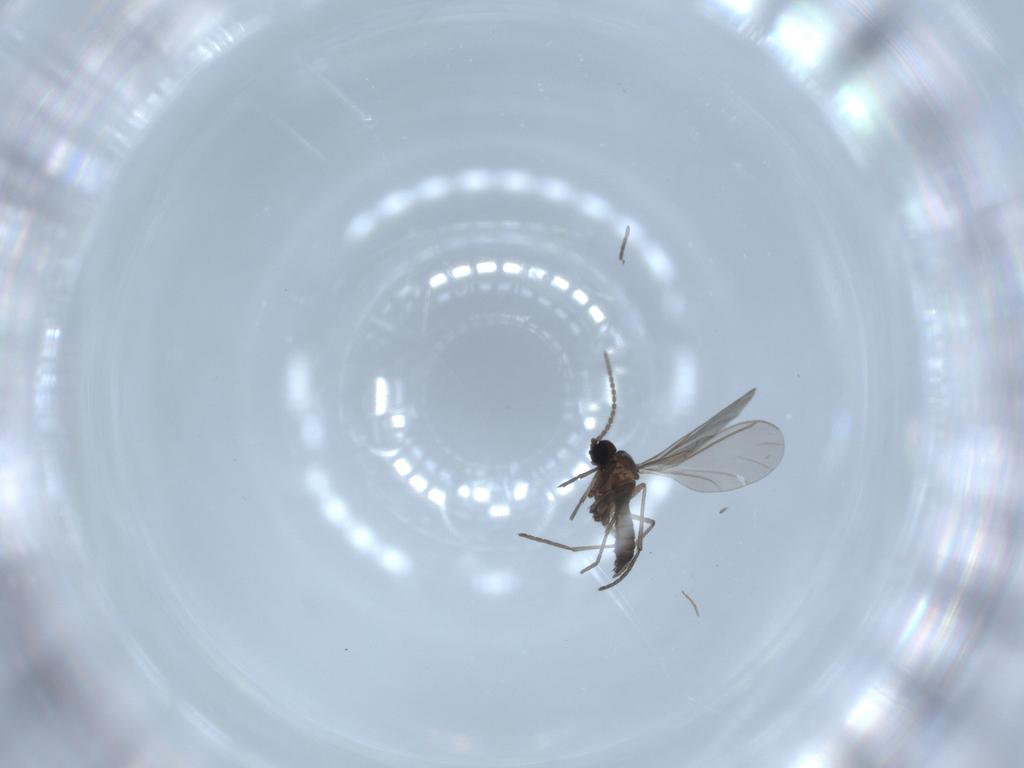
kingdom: Animalia
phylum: Arthropoda
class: Insecta
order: Diptera
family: Sciaridae
